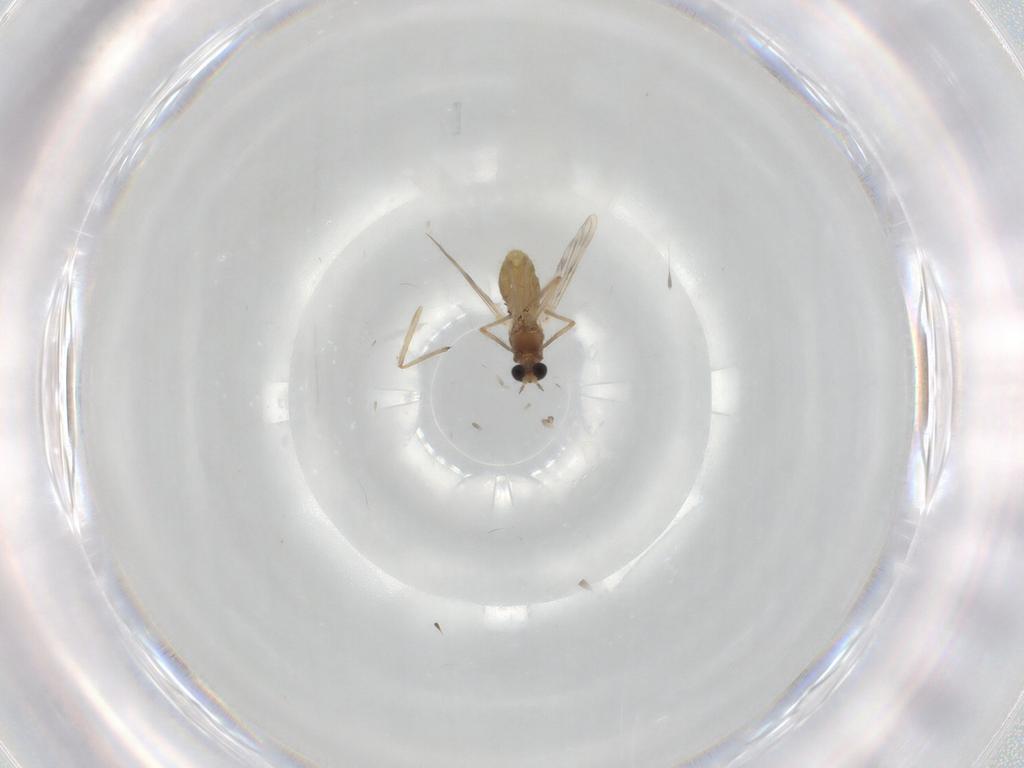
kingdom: Animalia
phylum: Arthropoda
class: Insecta
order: Diptera
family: Chironomidae
